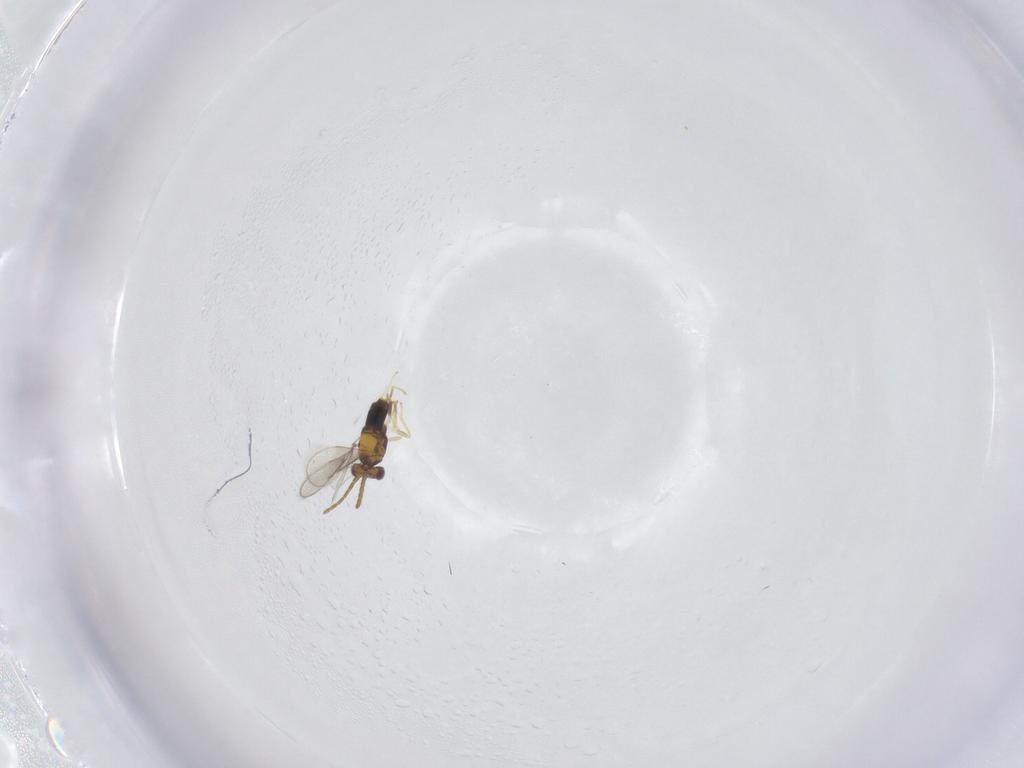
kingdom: Animalia
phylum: Arthropoda
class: Insecta
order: Hymenoptera
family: Aphelinidae
